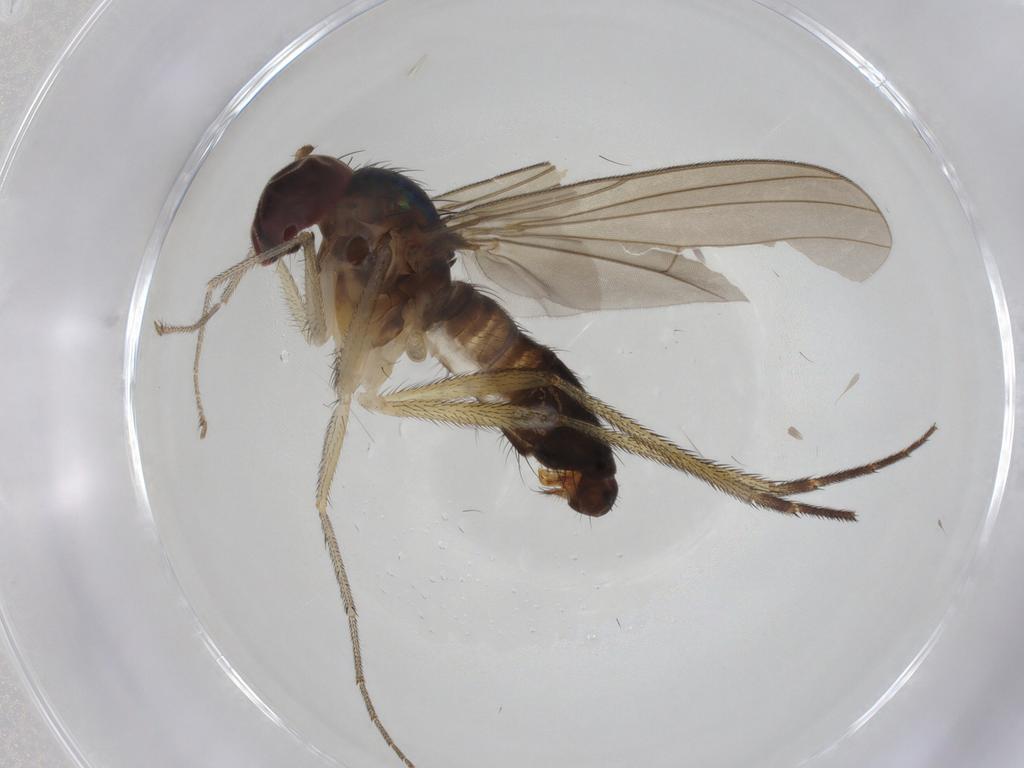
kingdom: Animalia
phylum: Arthropoda
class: Insecta
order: Diptera
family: Dolichopodidae
